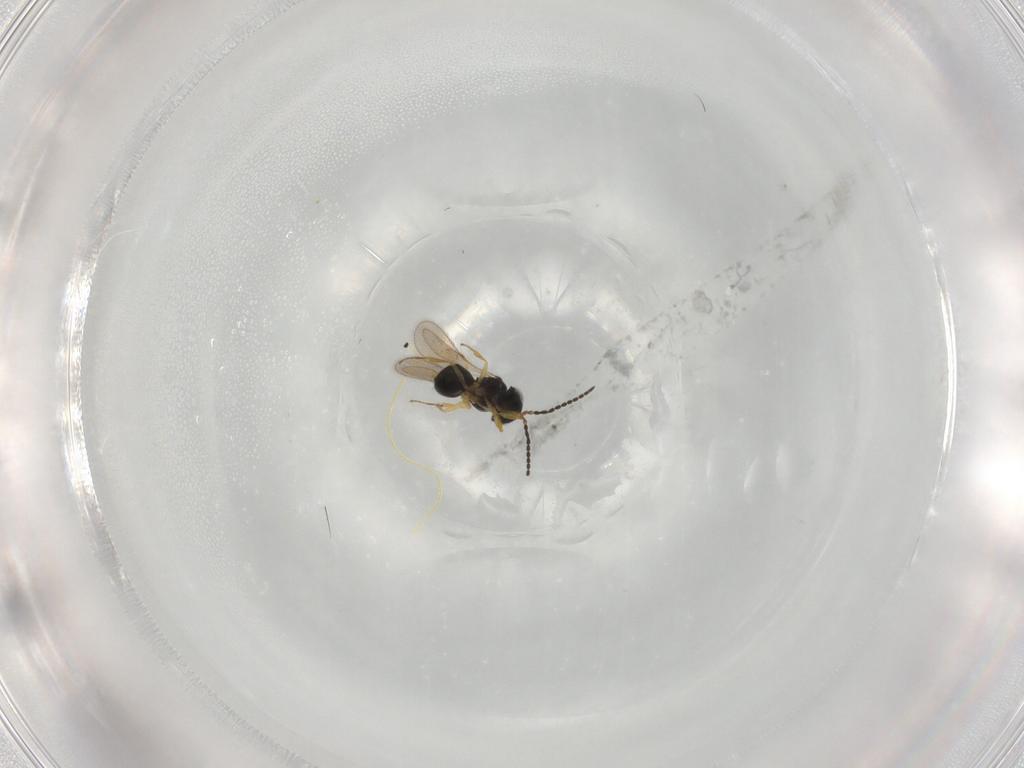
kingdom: Animalia
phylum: Arthropoda
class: Insecta
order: Hymenoptera
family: Scelionidae
